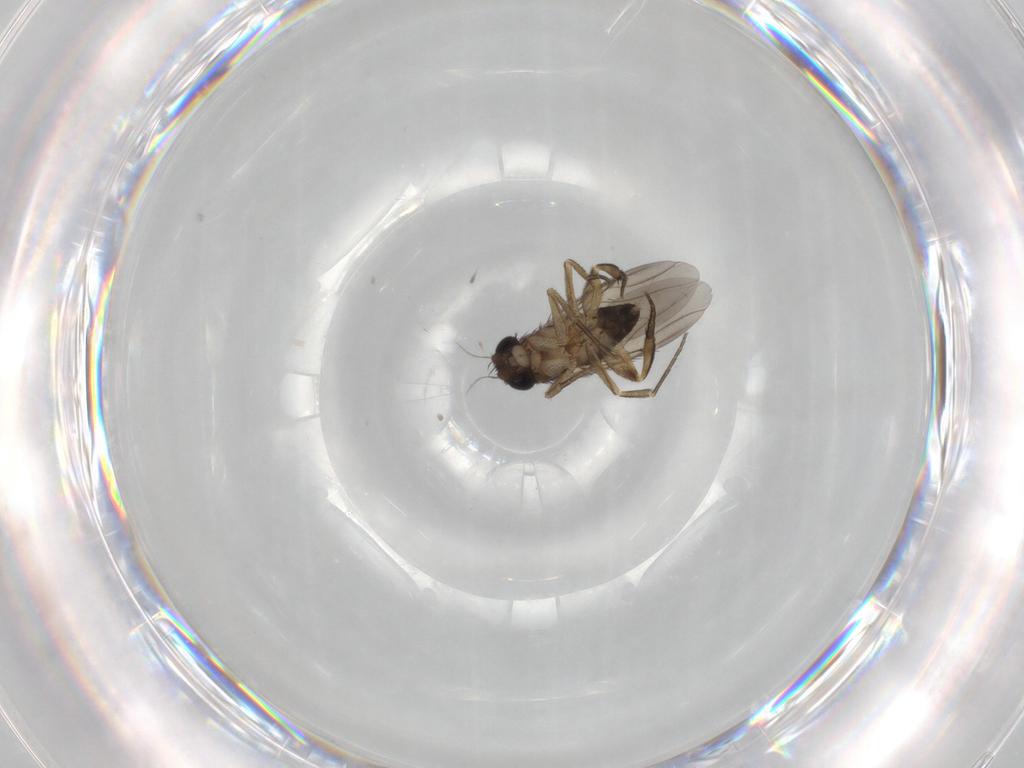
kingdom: Animalia
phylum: Arthropoda
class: Insecta
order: Diptera
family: Phoridae
